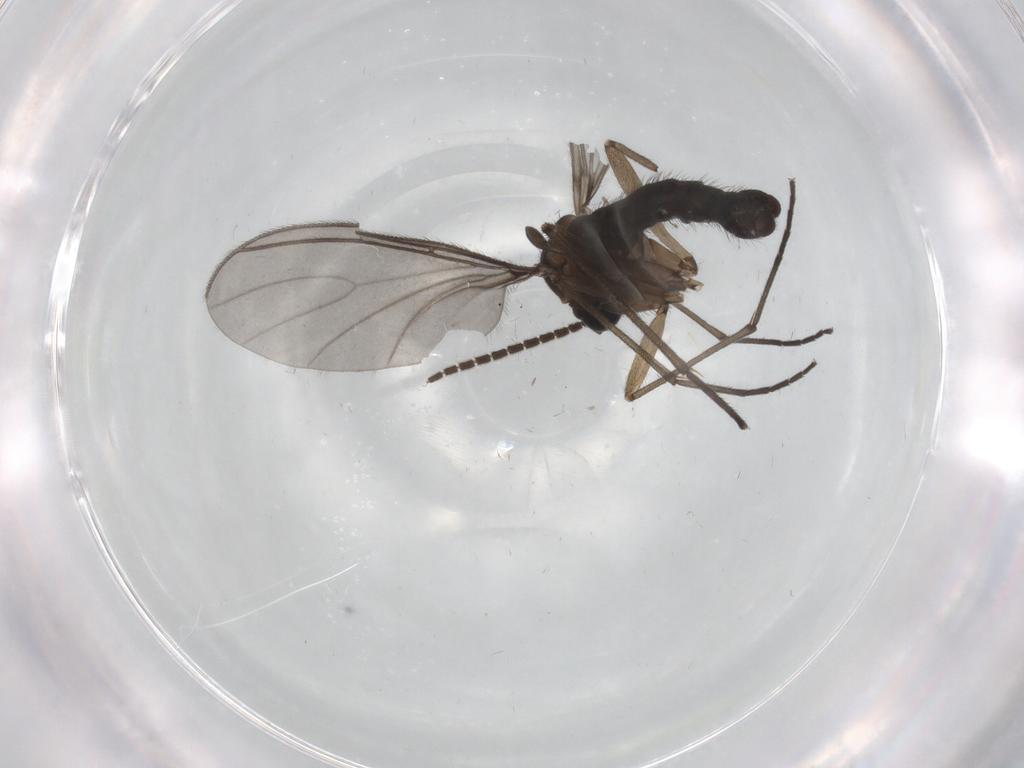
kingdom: Animalia
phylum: Arthropoda
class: Insecta
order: Diptera
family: Sciaridae
